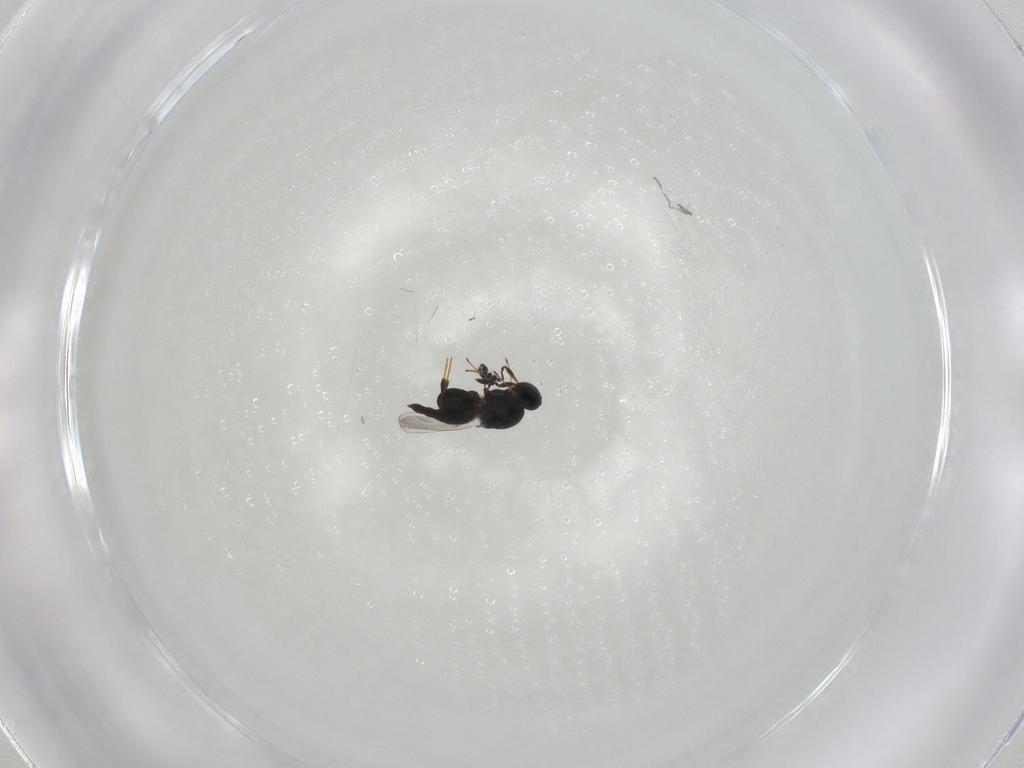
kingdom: Animalia
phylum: Arthropoda
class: Insecta
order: Hymenoptera
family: Platygastridae
